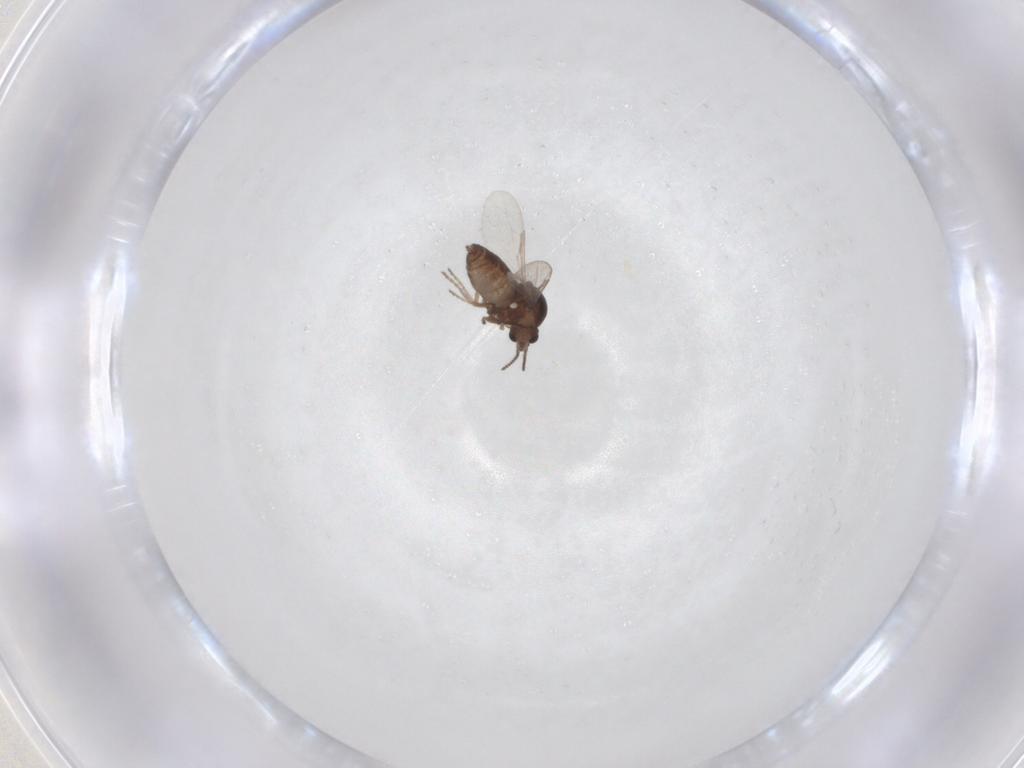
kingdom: Animalia
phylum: Arthropoda
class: Insecta
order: Diptera
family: Ceratopogonidae
